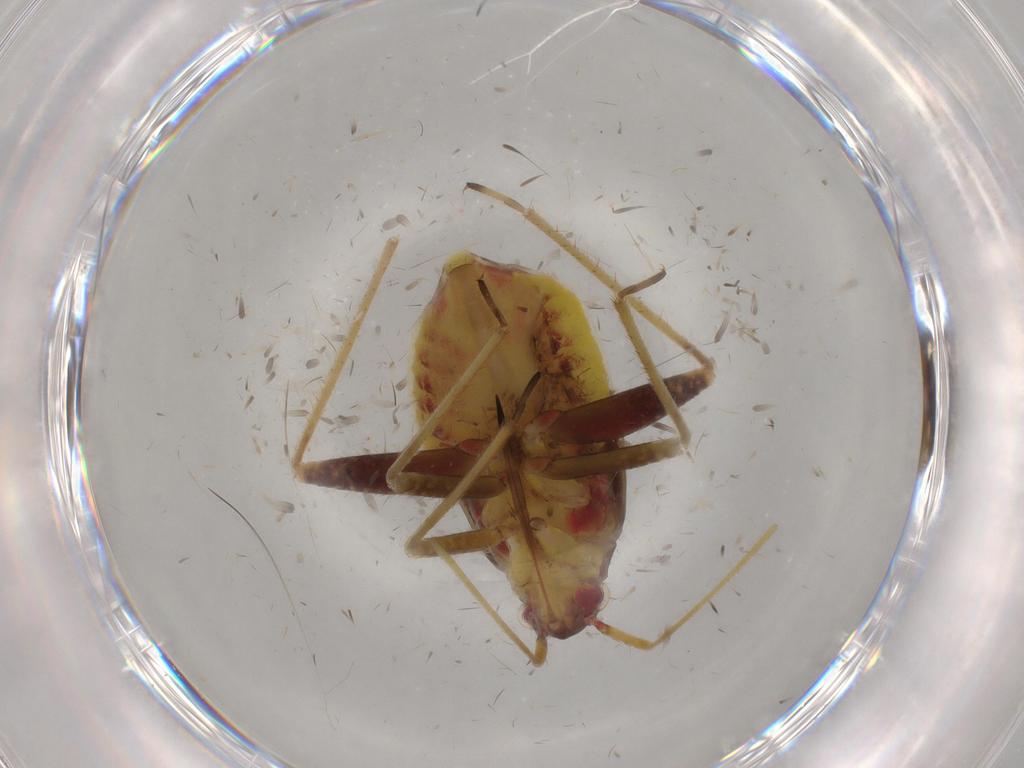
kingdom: Animalia
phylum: Arthropoda
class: Insecta
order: Hemiptera
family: Miridae
